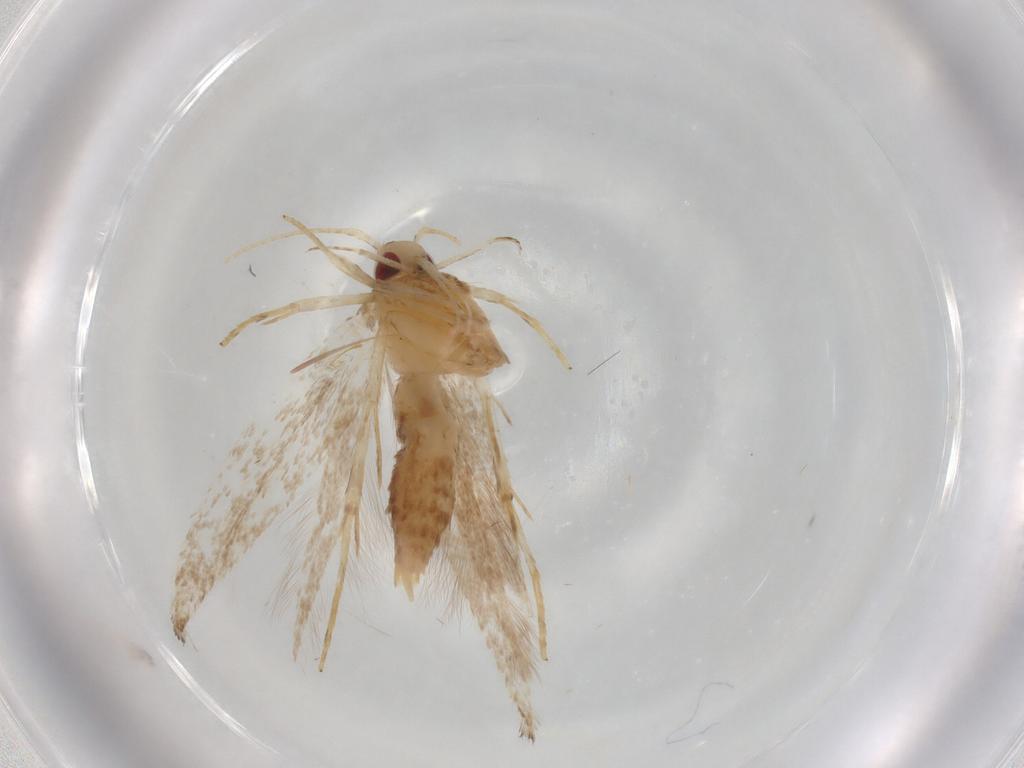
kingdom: Animalia
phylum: Arthropoda
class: Insecta
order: Lepidoptera
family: Cosmopterigidae
